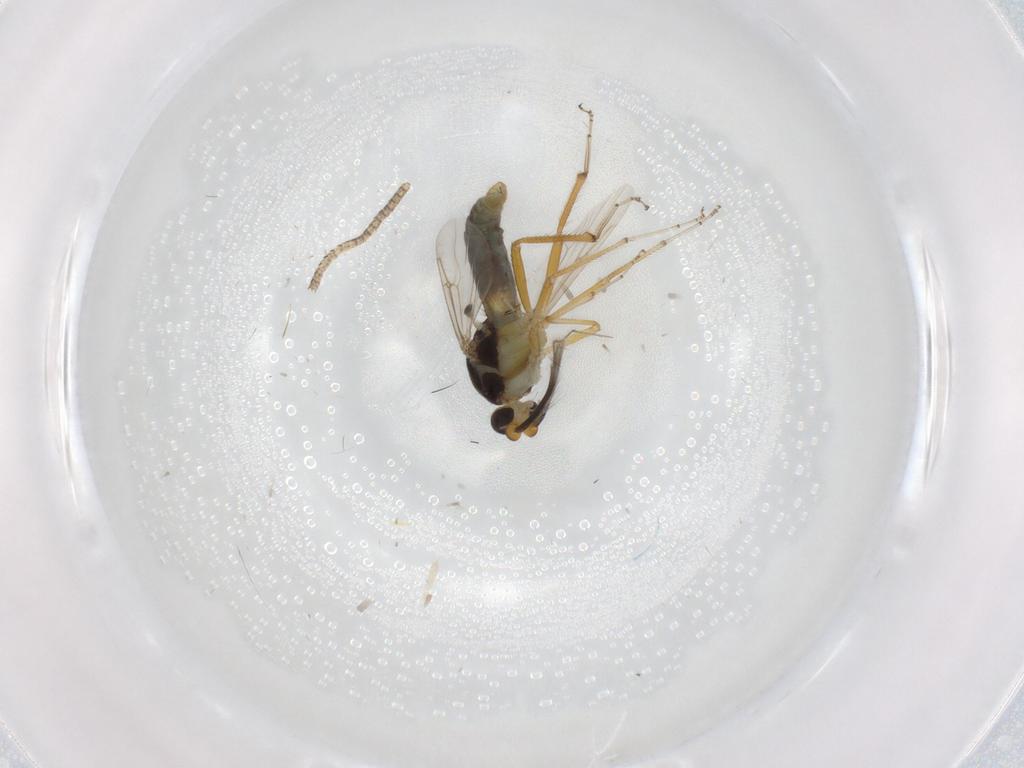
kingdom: Animalia
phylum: Arthropoda
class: Insecta
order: Diptera
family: Ceratopogonidae
